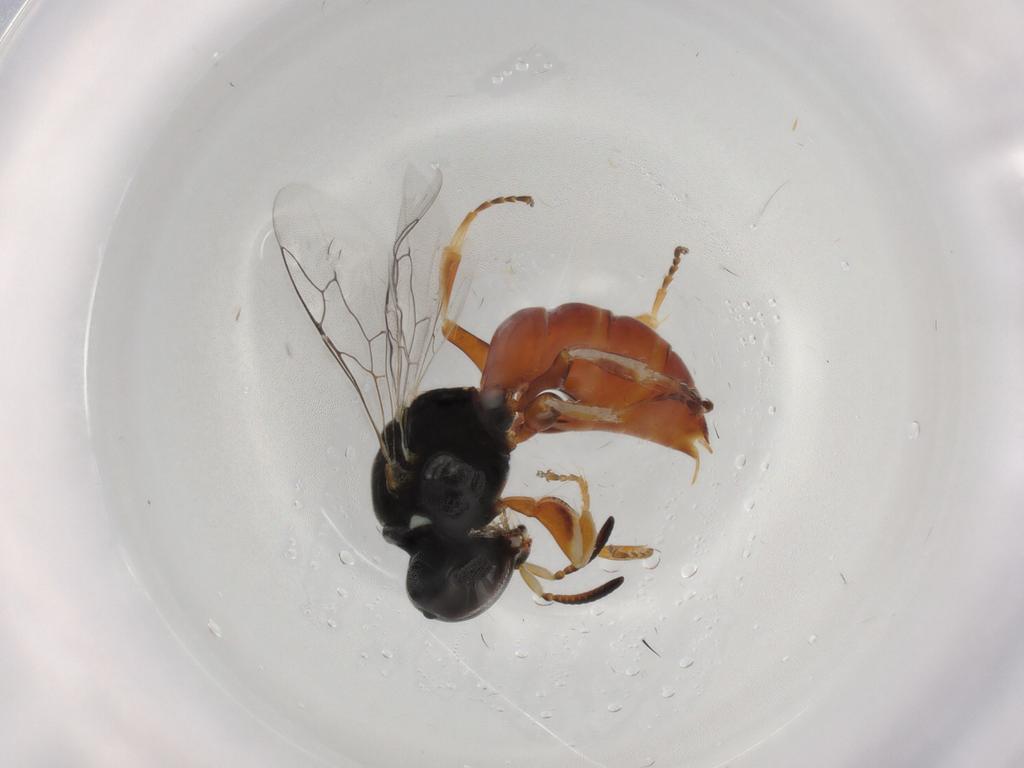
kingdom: Animalia
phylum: Arthropoda
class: Insecta
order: Hymenoptera
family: Crabronidae
